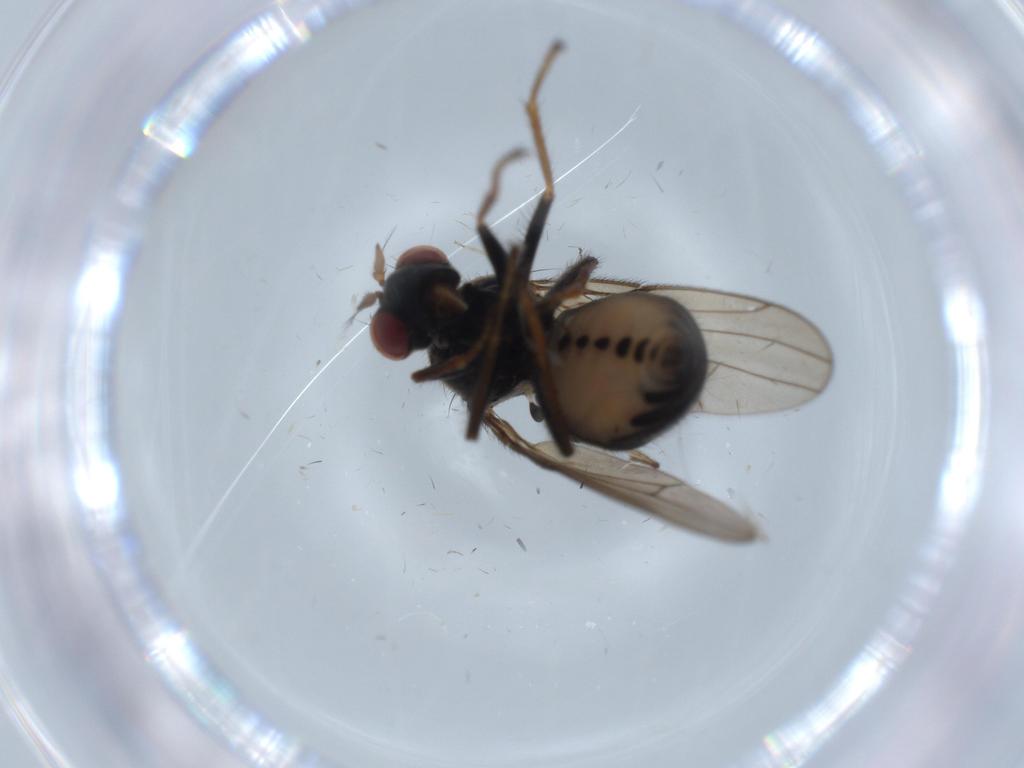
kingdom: Animalia
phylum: Arthropoda
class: Insecta
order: Diptera
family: Ephydridae
